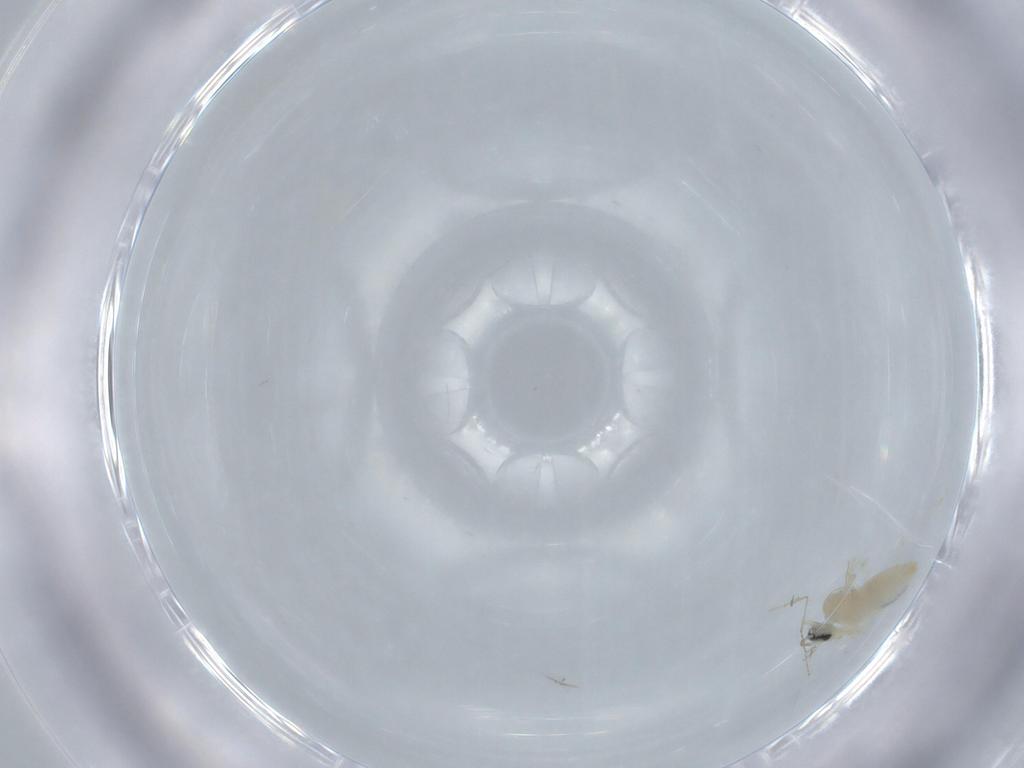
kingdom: Animalia
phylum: Arthropoda
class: Insecta
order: Diptera
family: Cecidomyiidae
